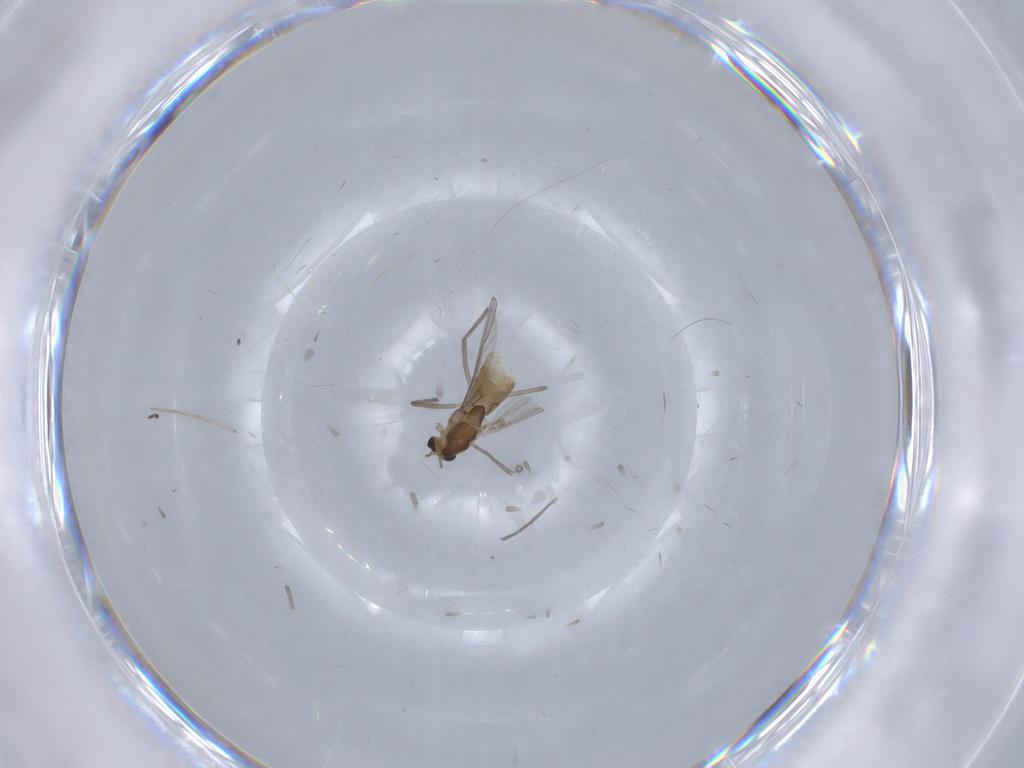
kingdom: Animalia
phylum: Arthropoda
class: Insecta
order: Diptera
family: Chironomidae
